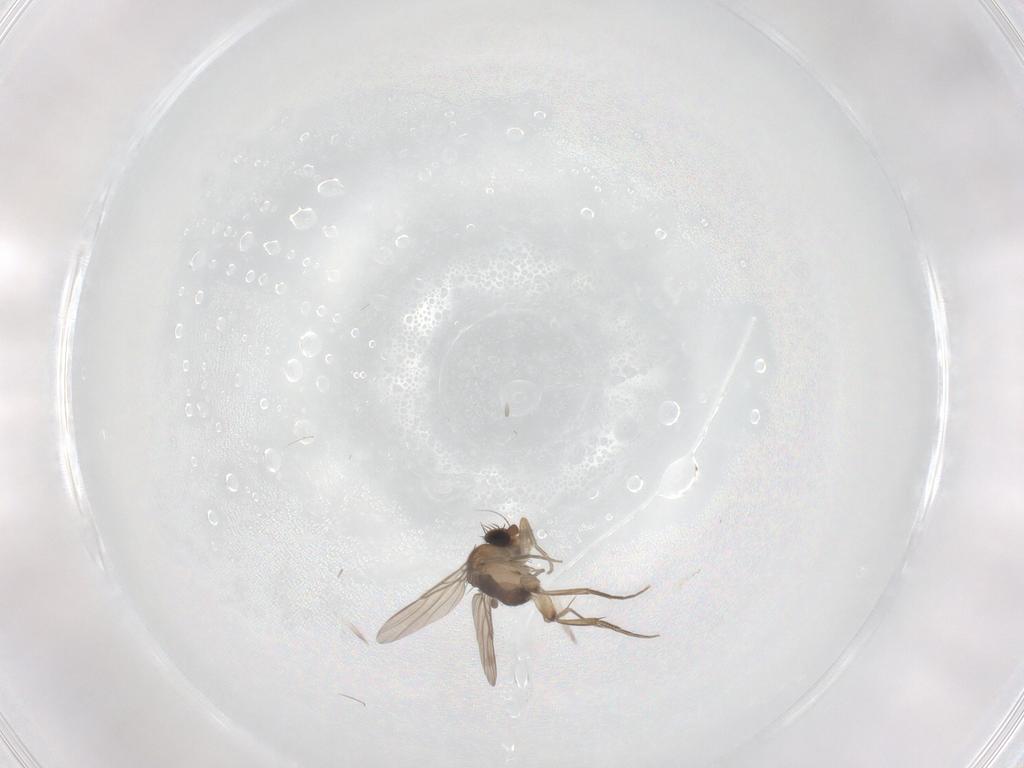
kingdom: Animalia
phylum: Arthropoda
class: Insecta
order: Diptera
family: Phoridae
